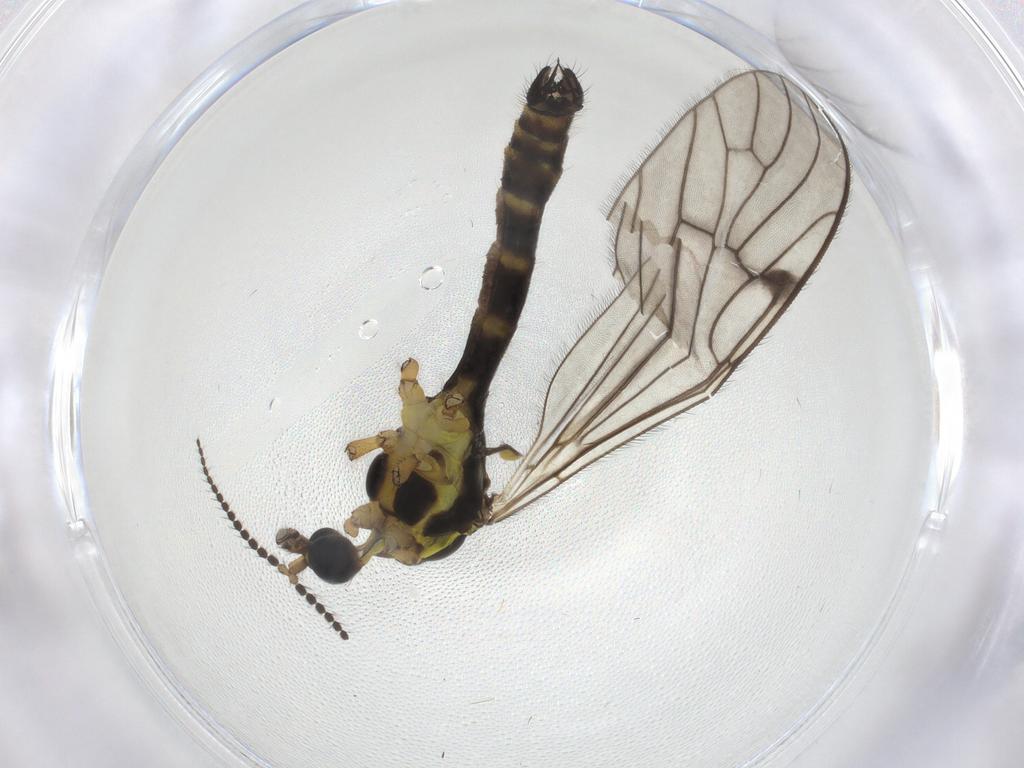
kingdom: Animalia
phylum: Arthropoda
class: Insecta
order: Diptera
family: Limoniidae
